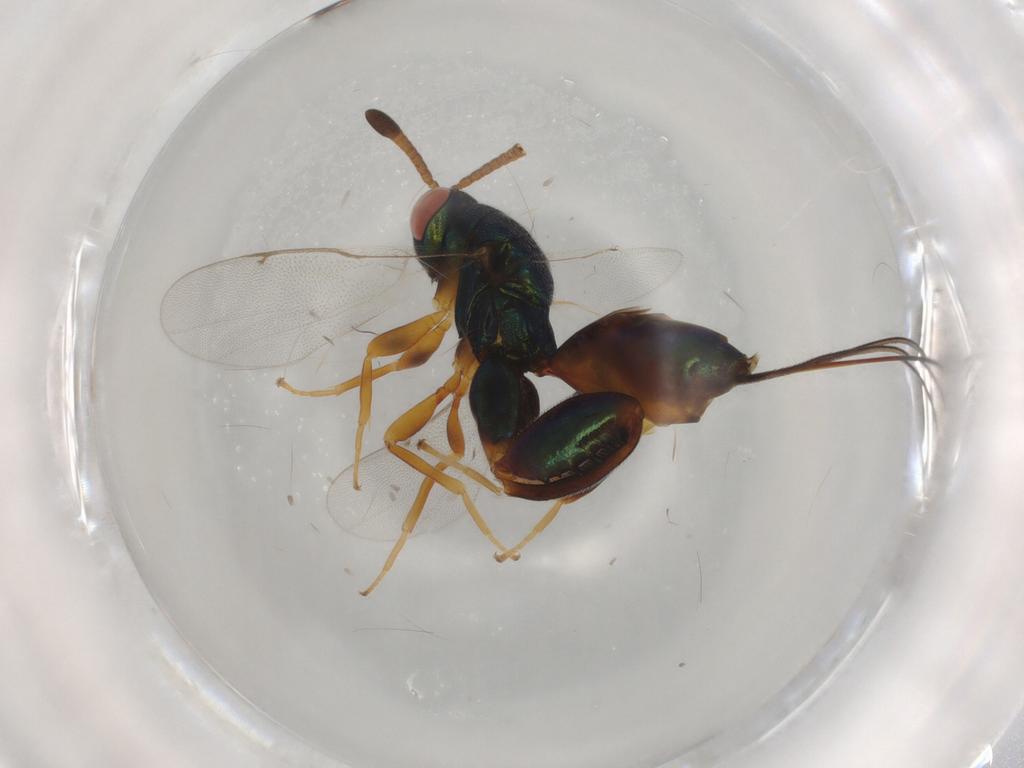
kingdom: Animalia
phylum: Arthropoda
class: Insecta
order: Hymenoptera
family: Torymidae
